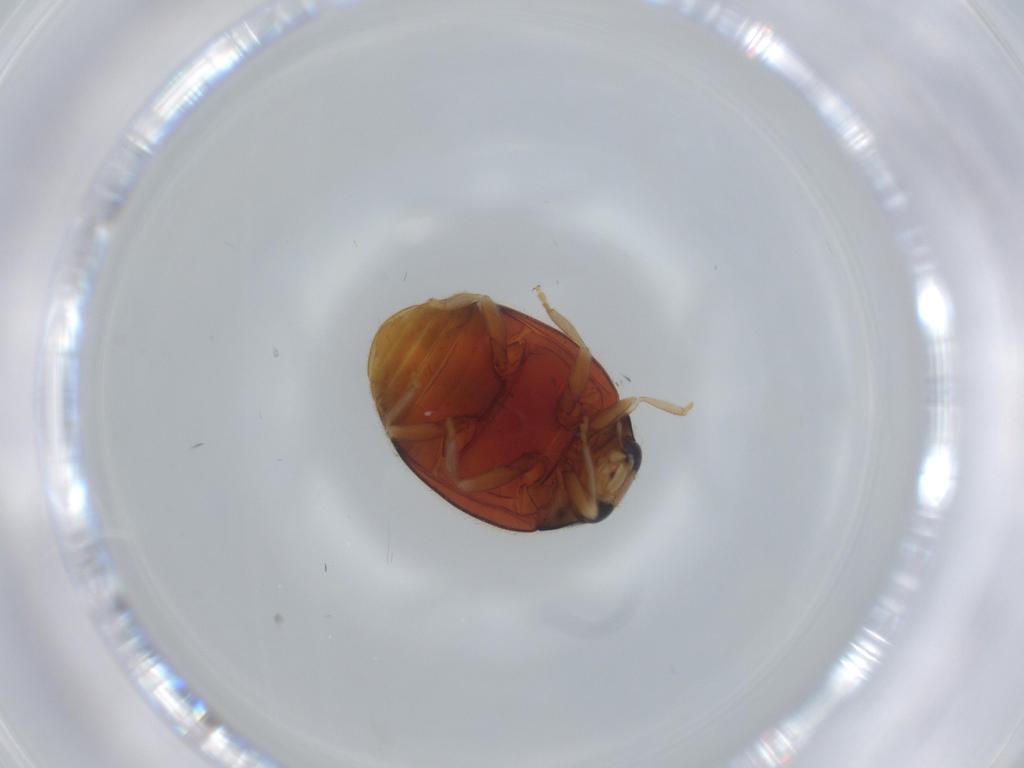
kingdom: Animalia
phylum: Arthropoda
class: Insecta
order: Coleoptera
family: Coccinellidae
